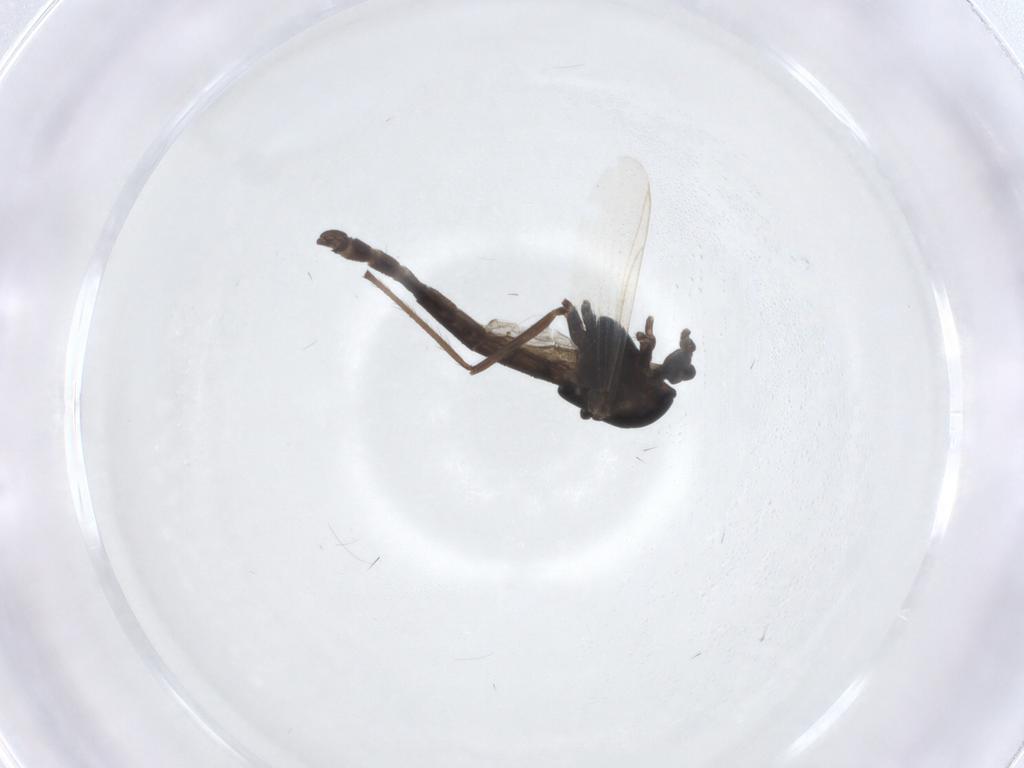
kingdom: Animalia
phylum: Arthropoda
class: Insecta
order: Diptera
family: Chironomidae
